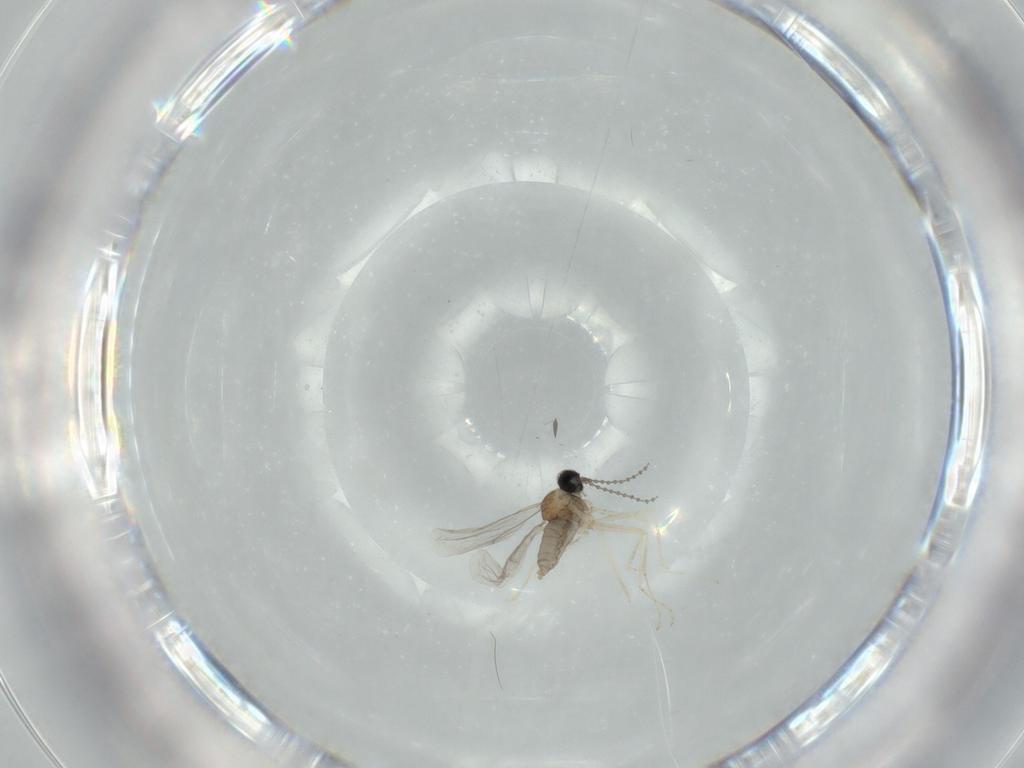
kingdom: Animalia
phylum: Arthropoda
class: Insecta
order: Diptera
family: Cecidomyiidae
